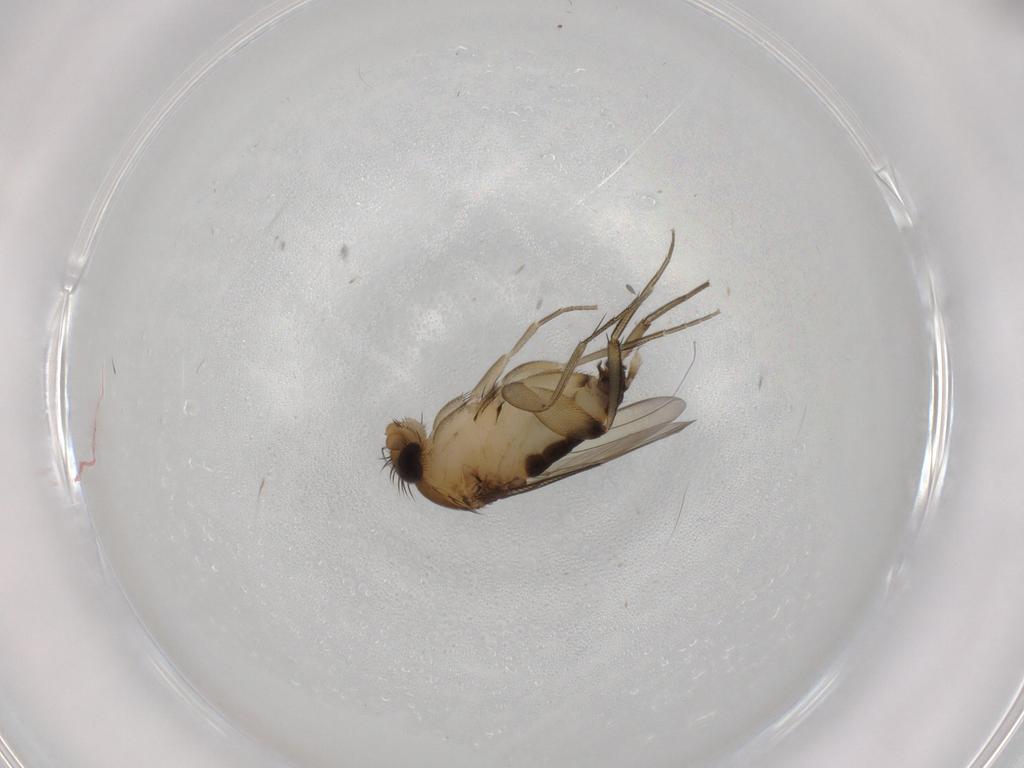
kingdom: Animalia
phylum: Arthropoda
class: Insecta
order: Diptera
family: Phoridae
